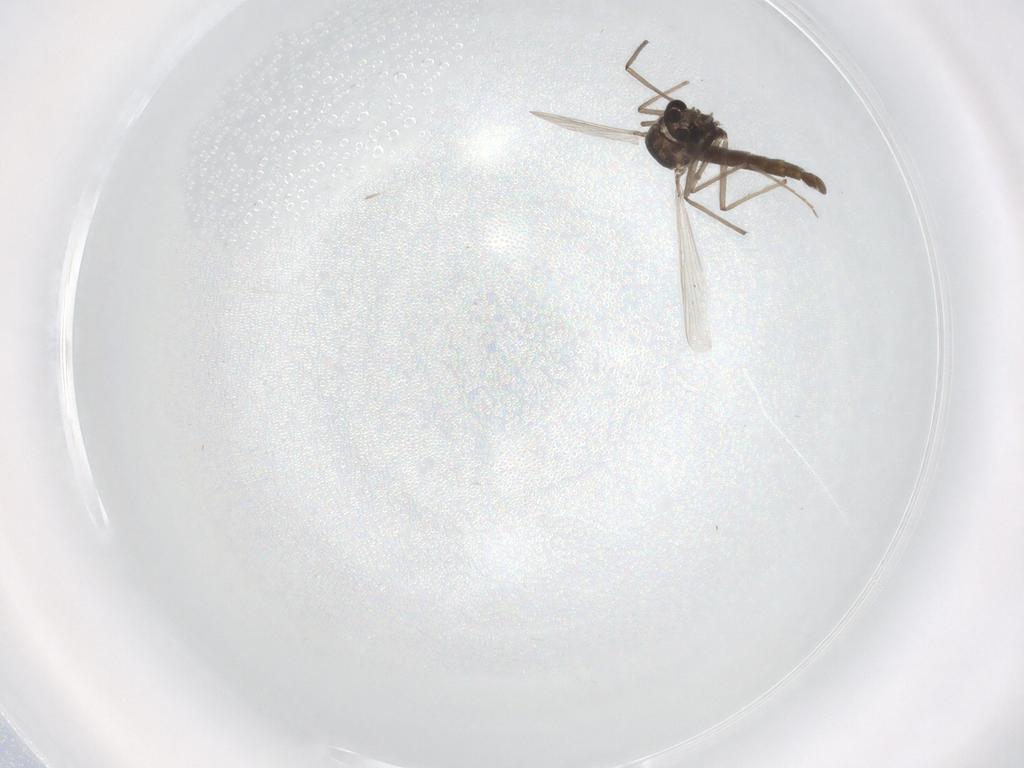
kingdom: Animalia
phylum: Arthropoda
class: Insecta
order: Diptera
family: Chironomidae
